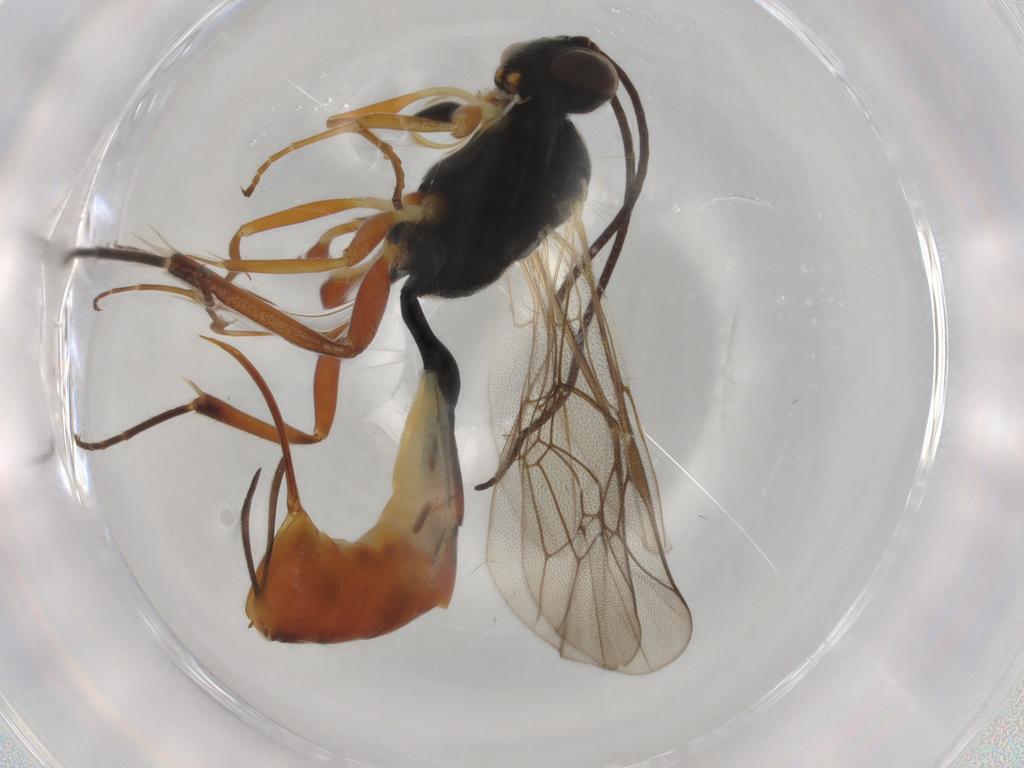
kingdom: Animalia
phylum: Arthropoda
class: Insecta
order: Hymenoptera
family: Ichneumonidae
